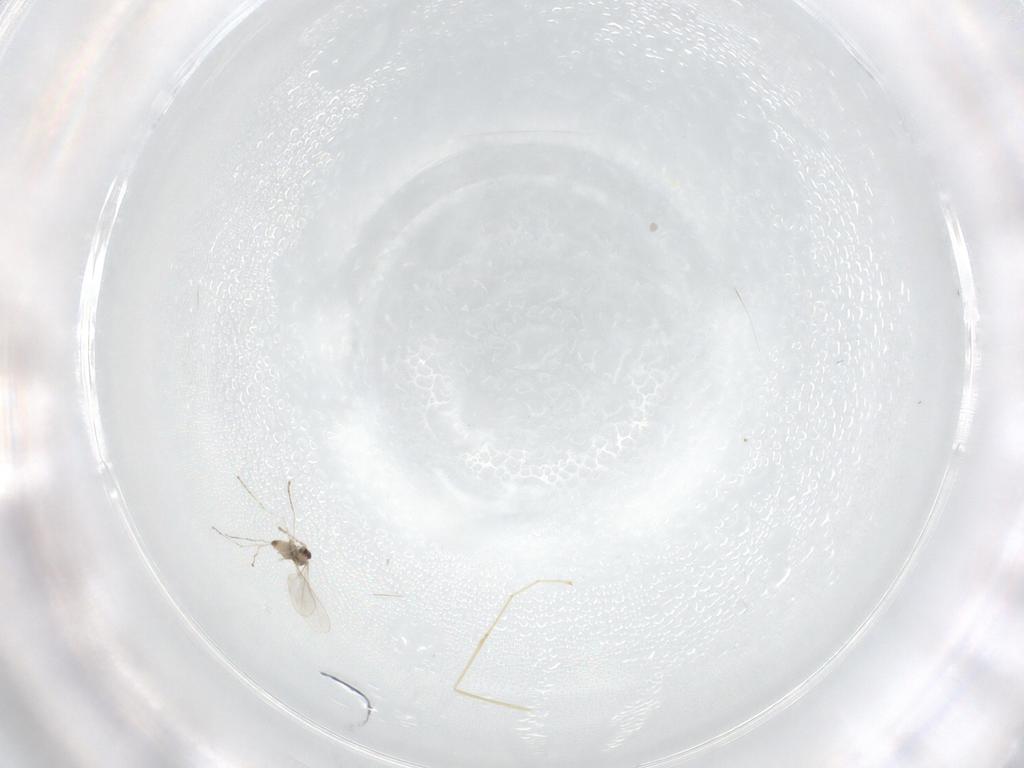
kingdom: Animalia
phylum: Arthropoda
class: Insecta
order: Diptera
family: Cecidomyiidae
